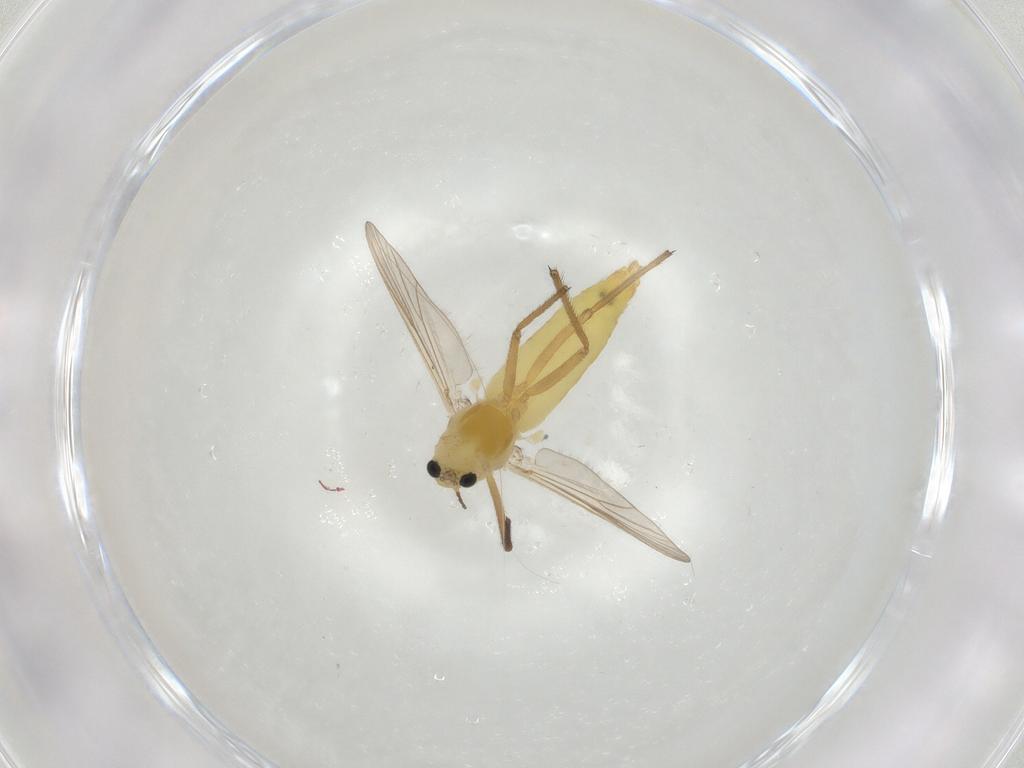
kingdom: Animalia
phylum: Arthropoda
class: Insecta
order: Diptera
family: Chironomidae
